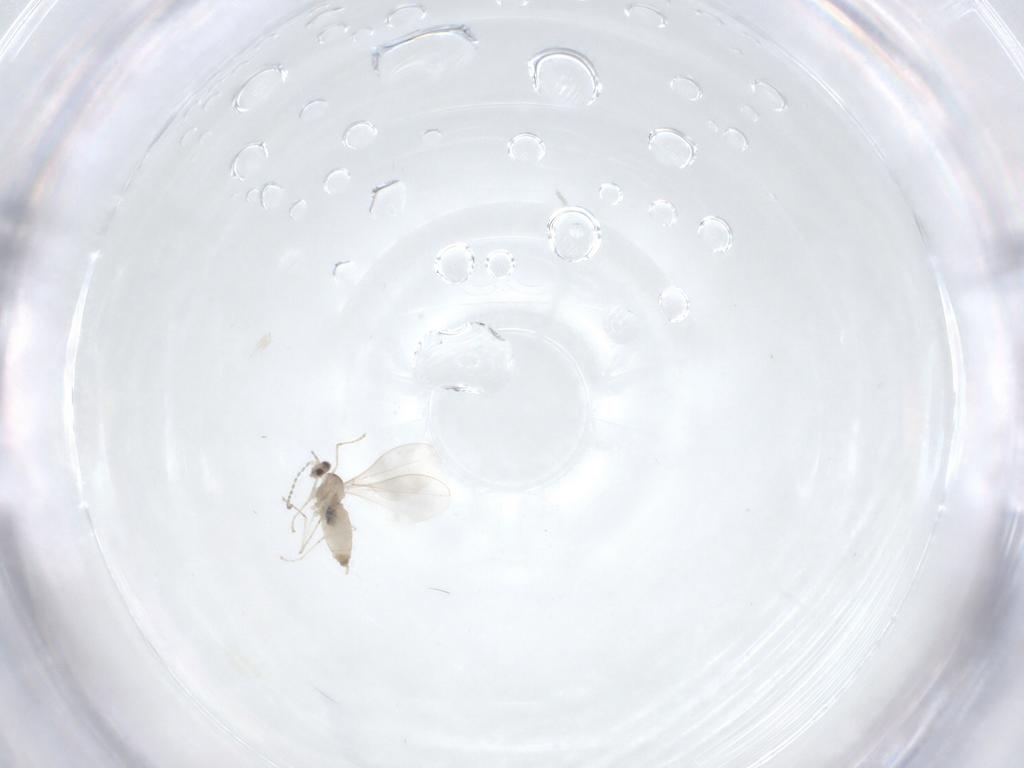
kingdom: Animalia
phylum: Arthropoda
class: Insecta
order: Diptera
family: Cecidomyiidae
